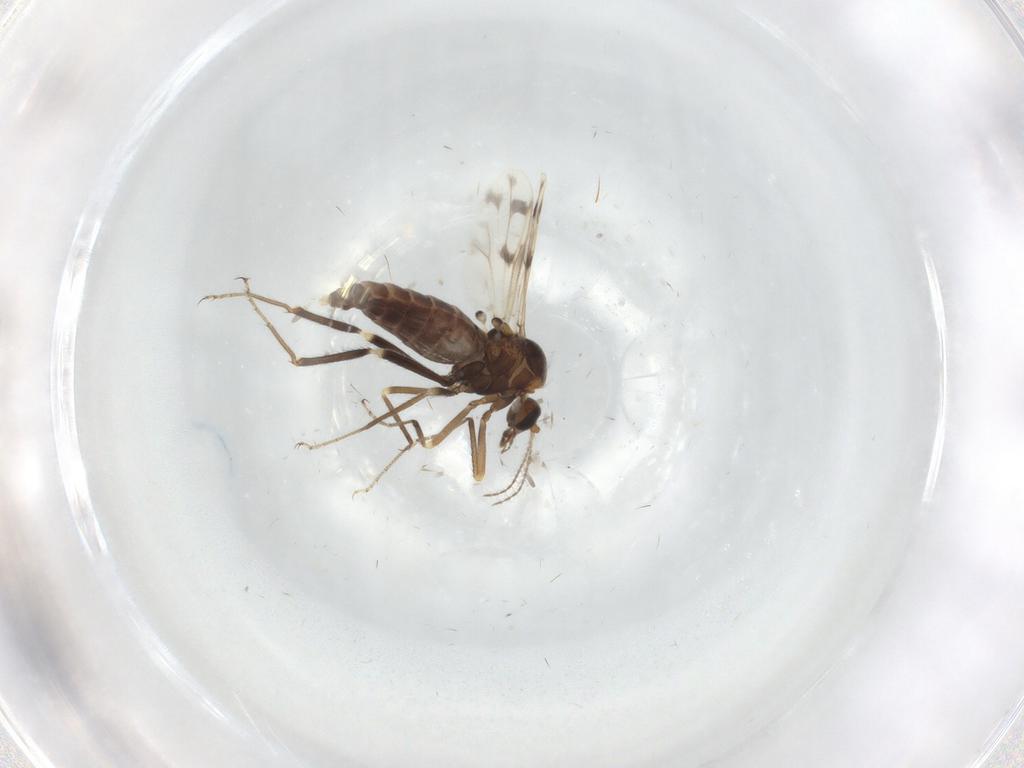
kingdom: Animalia
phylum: Arthropoda
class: Insecta
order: Diptera
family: Ceratopogonidae
